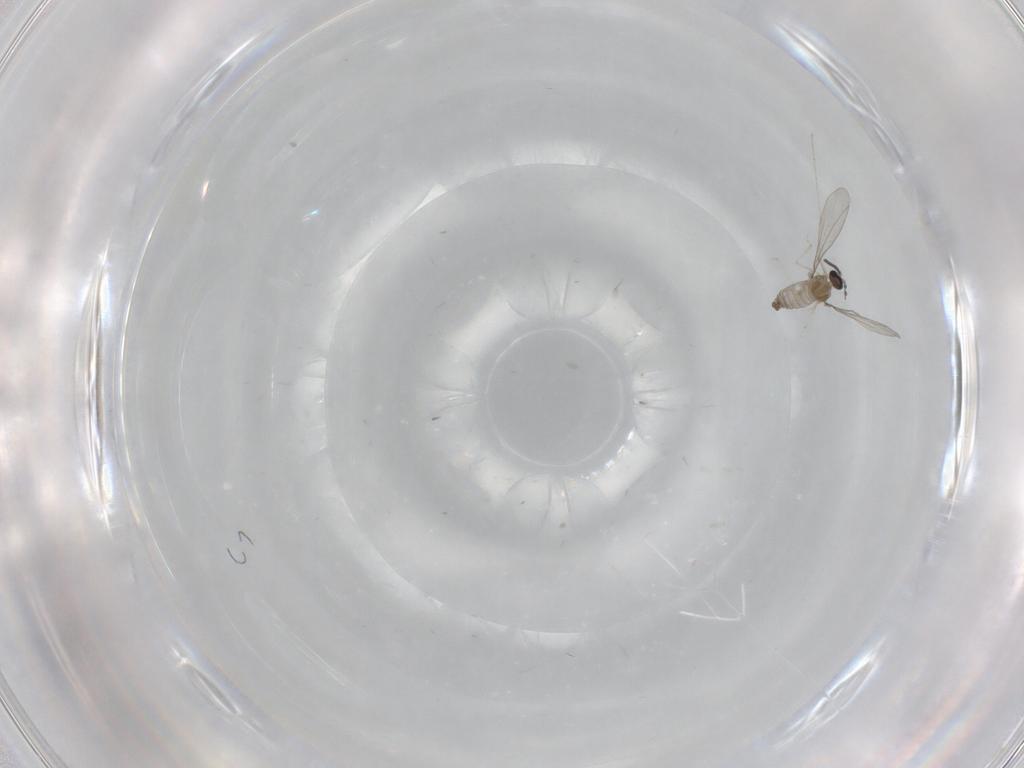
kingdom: Animalia
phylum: Arthropoda
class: Insecta
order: Diptera
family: Cecidomyiidae
